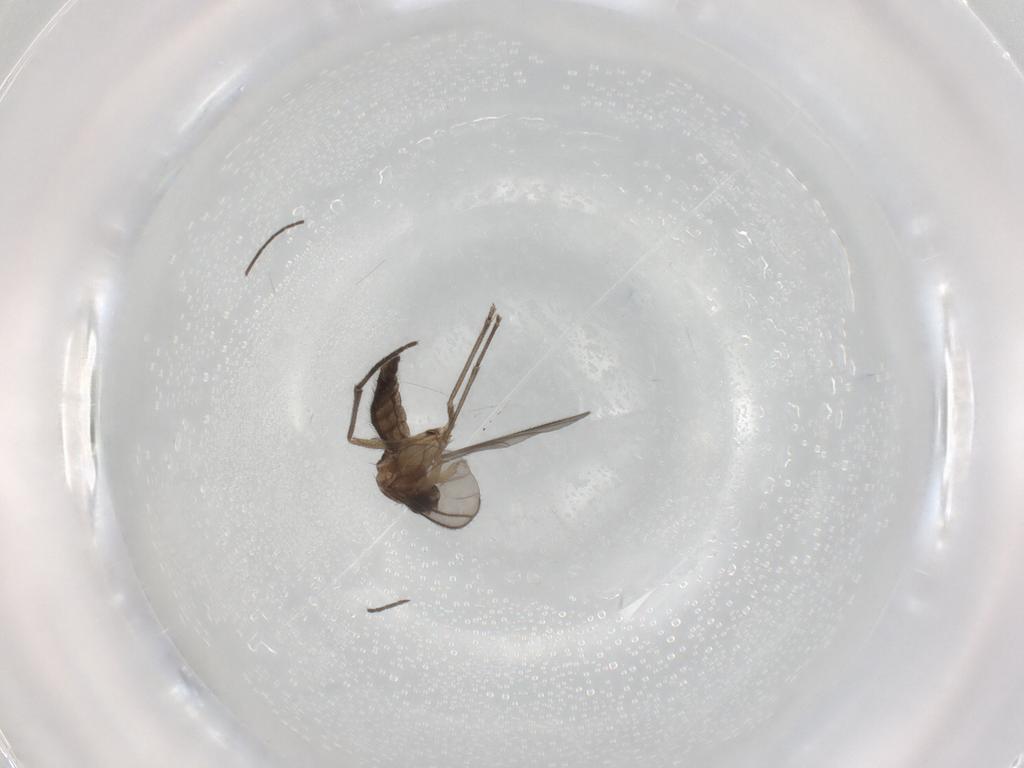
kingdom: Animalia
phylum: Arthropoda
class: Insecta
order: Diptera
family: Sciaridae
